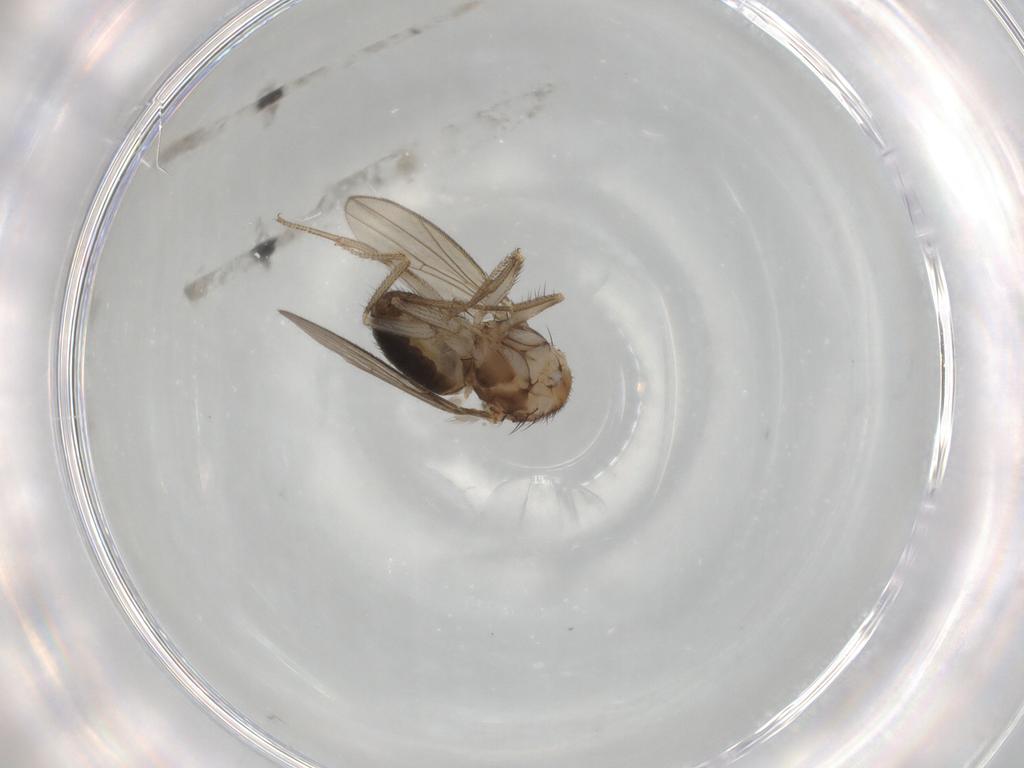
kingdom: Animalia
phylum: Arthropoda
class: Insecta
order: Diptera
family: Drosophilidae
